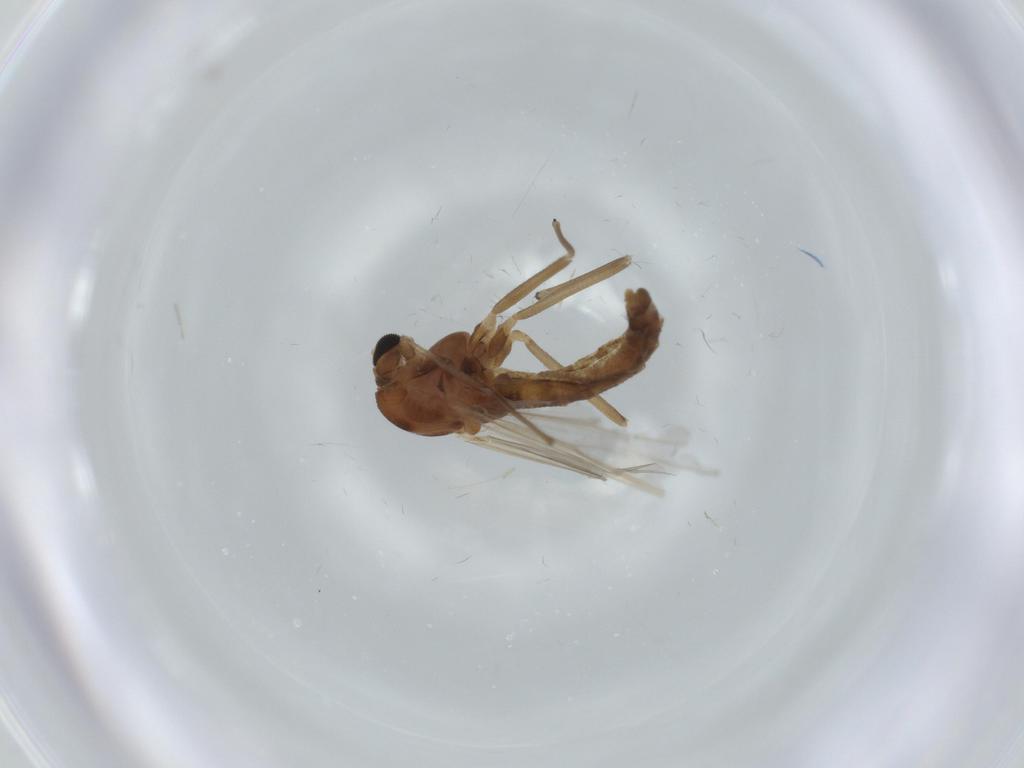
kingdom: Animalia
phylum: Arthropoda
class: Insecta
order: Diptera
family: Chironomidae
